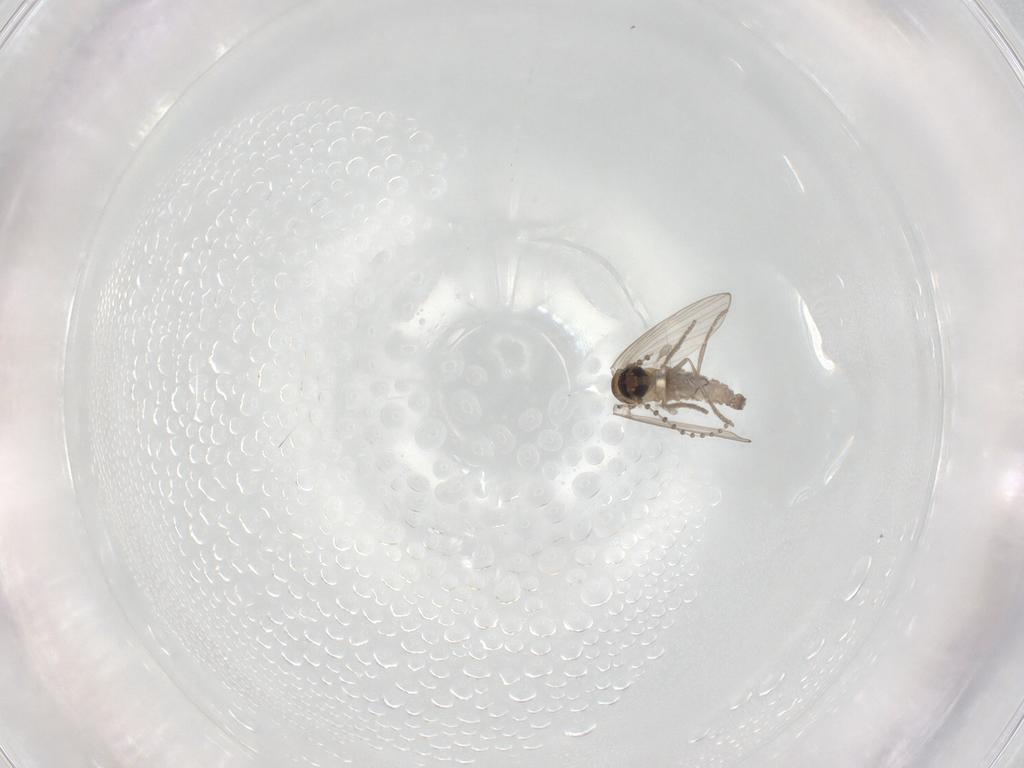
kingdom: Animalia
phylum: Arthropoda
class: Insecta
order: Diptera
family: Psychodidae
